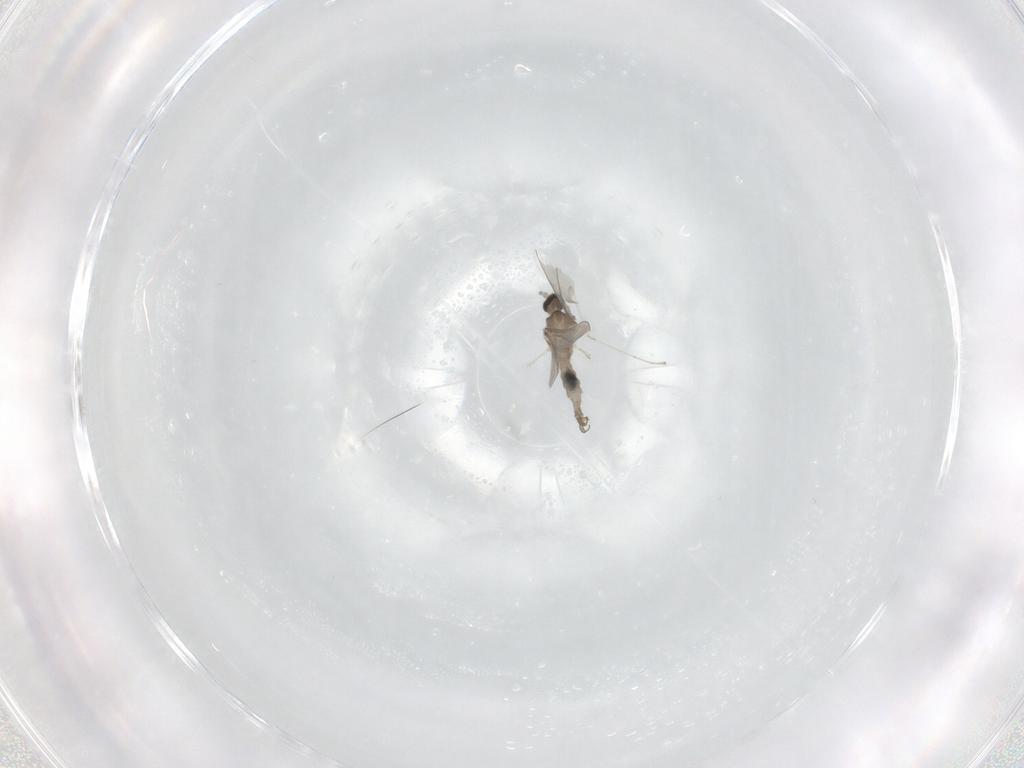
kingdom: Animalia
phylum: Arthropoda
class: Insecta
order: Diptera
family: Cecidomyiidae
